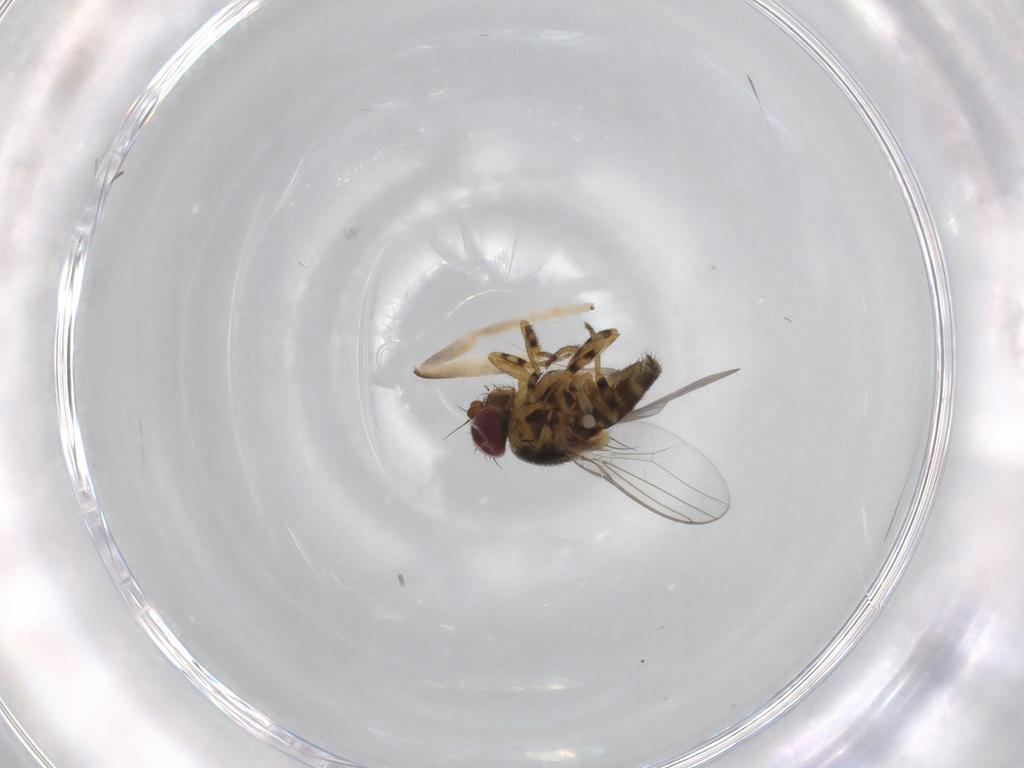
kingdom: Animalia
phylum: Arthropoda
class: Insecta
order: Diptera
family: Chloropidae
